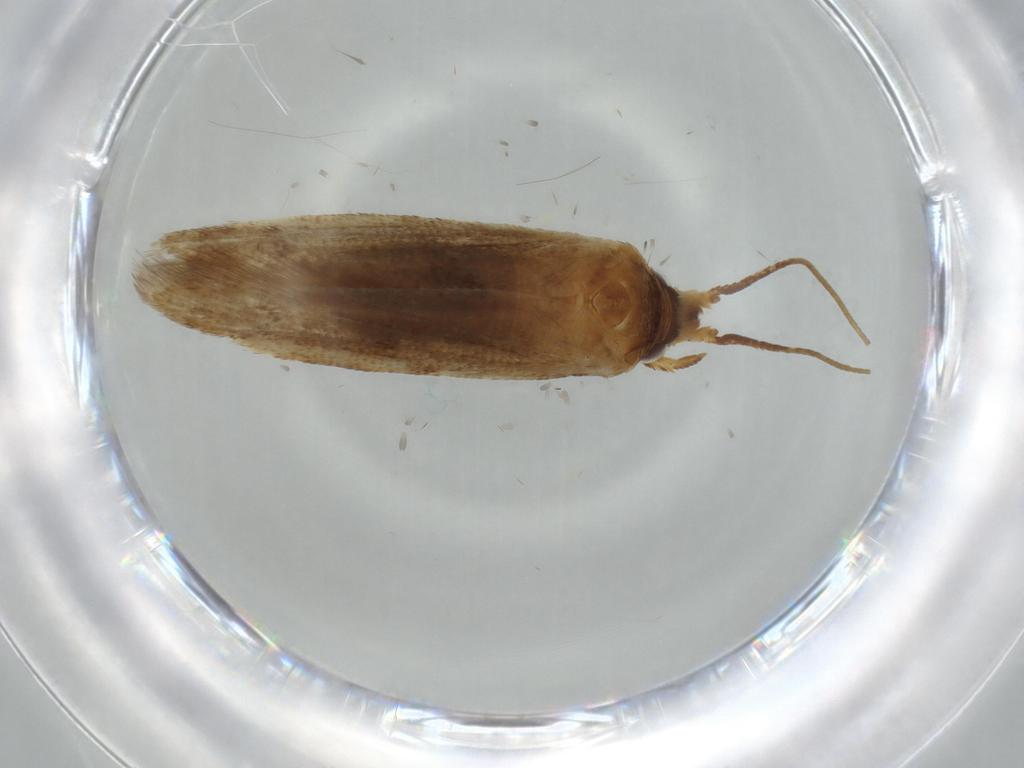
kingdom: Animalia
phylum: Arthropoda
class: Insecta
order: Lepidoptera
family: Coleophoridae
